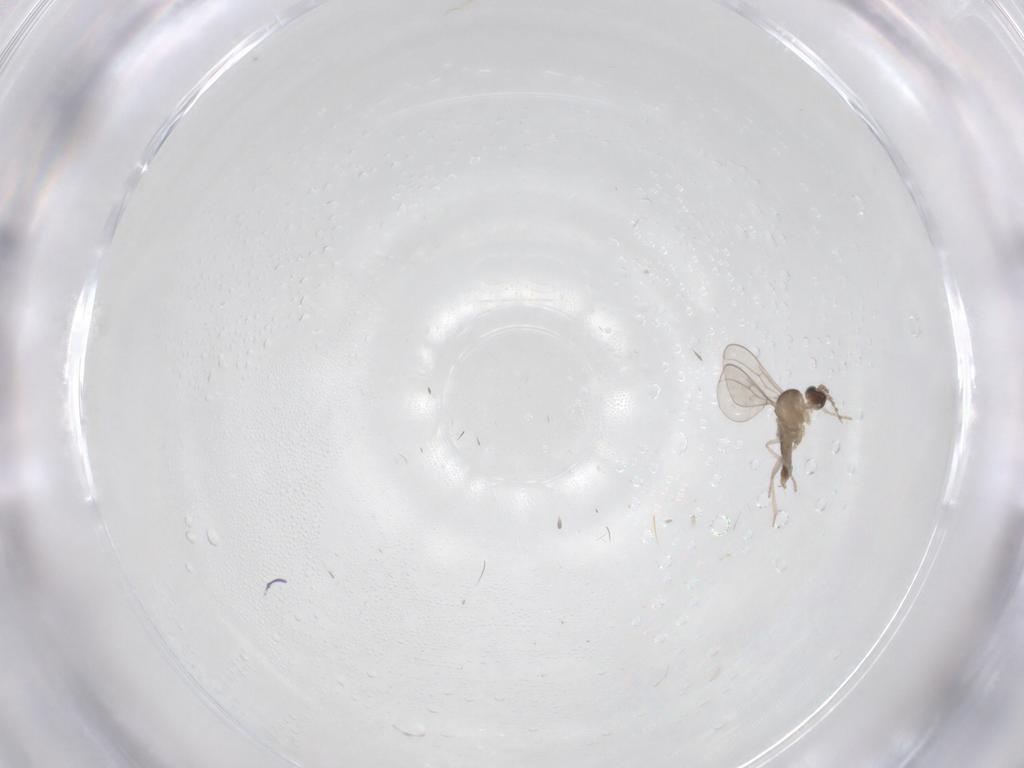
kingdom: Animalia
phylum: Arthropoda
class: Insecta
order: Diptera
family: Cecidomyiidae
